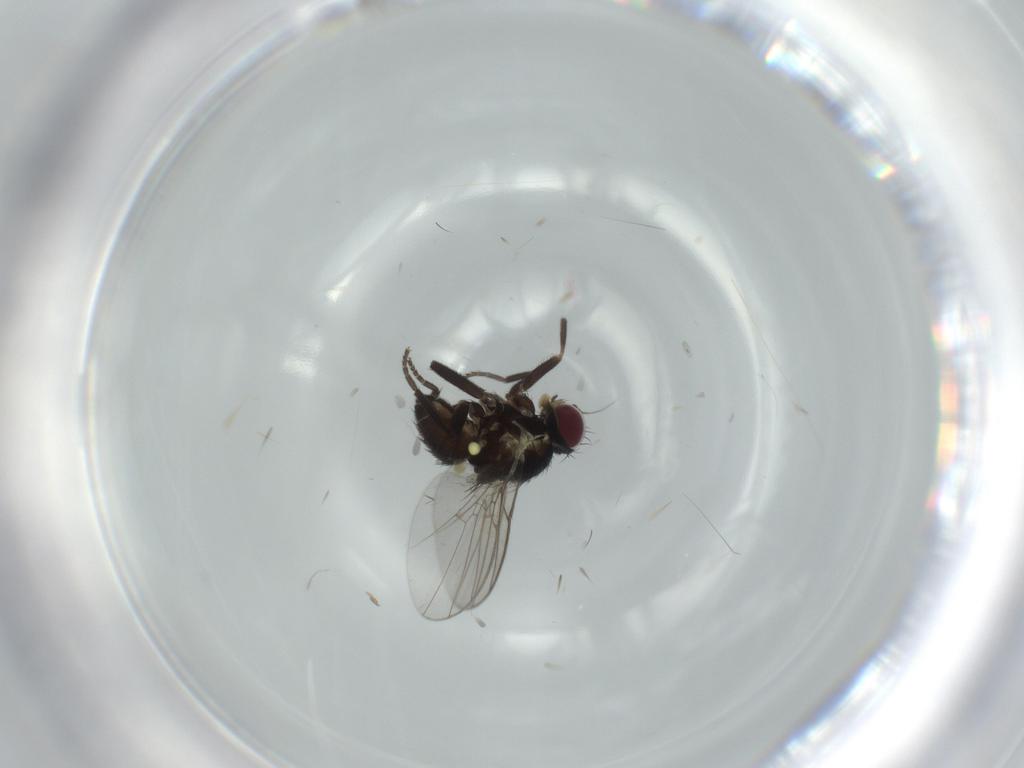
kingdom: Animalia
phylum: Arthropoda
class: Insecta
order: Diptera
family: Agromyzidae
